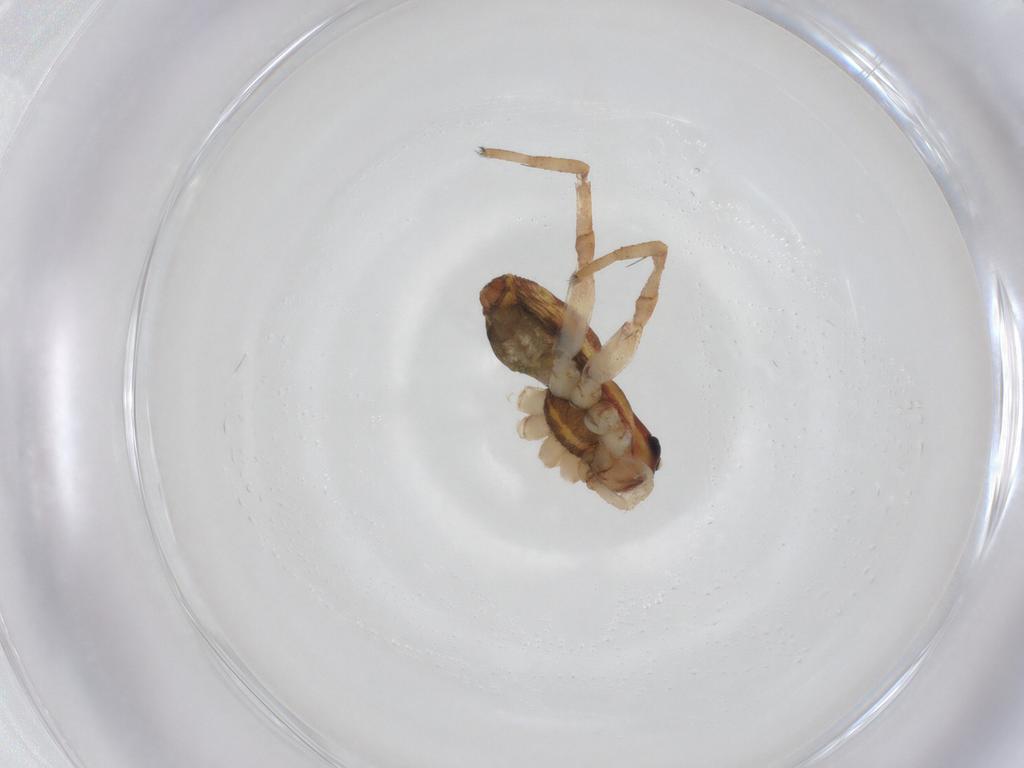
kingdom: Animalia
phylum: Arthropoda
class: Arachnida
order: Araneae
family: Pisauridae
